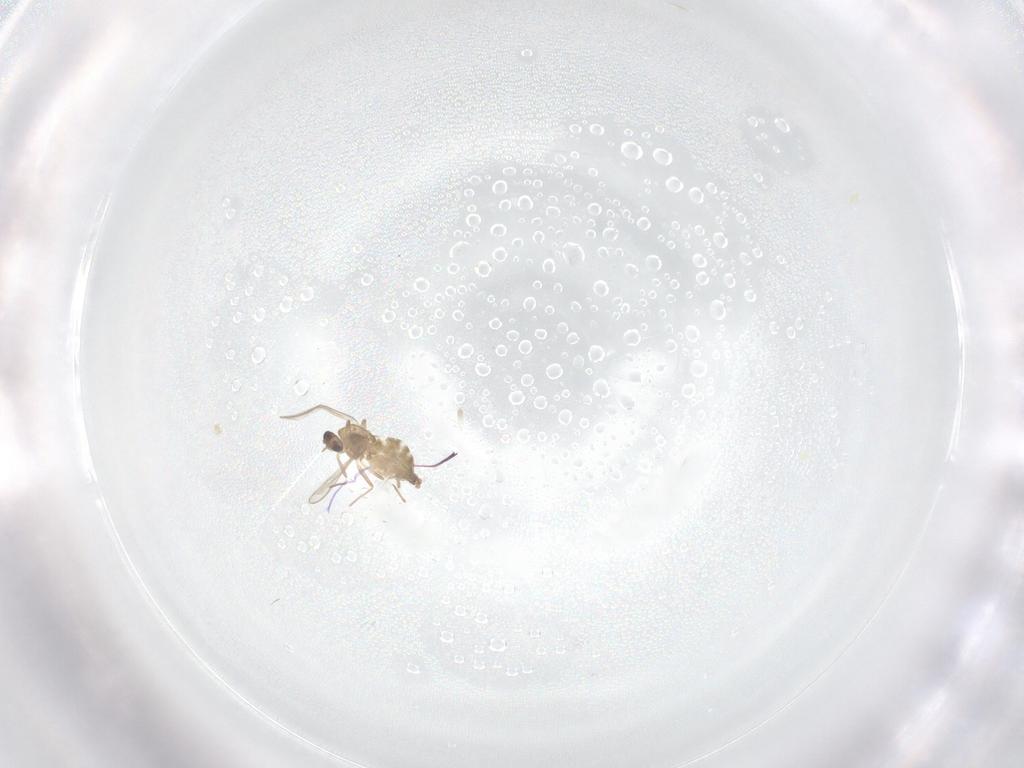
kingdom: Animalia
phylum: Arthropoda
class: Insecta
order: Diptera
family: Chironomidae
